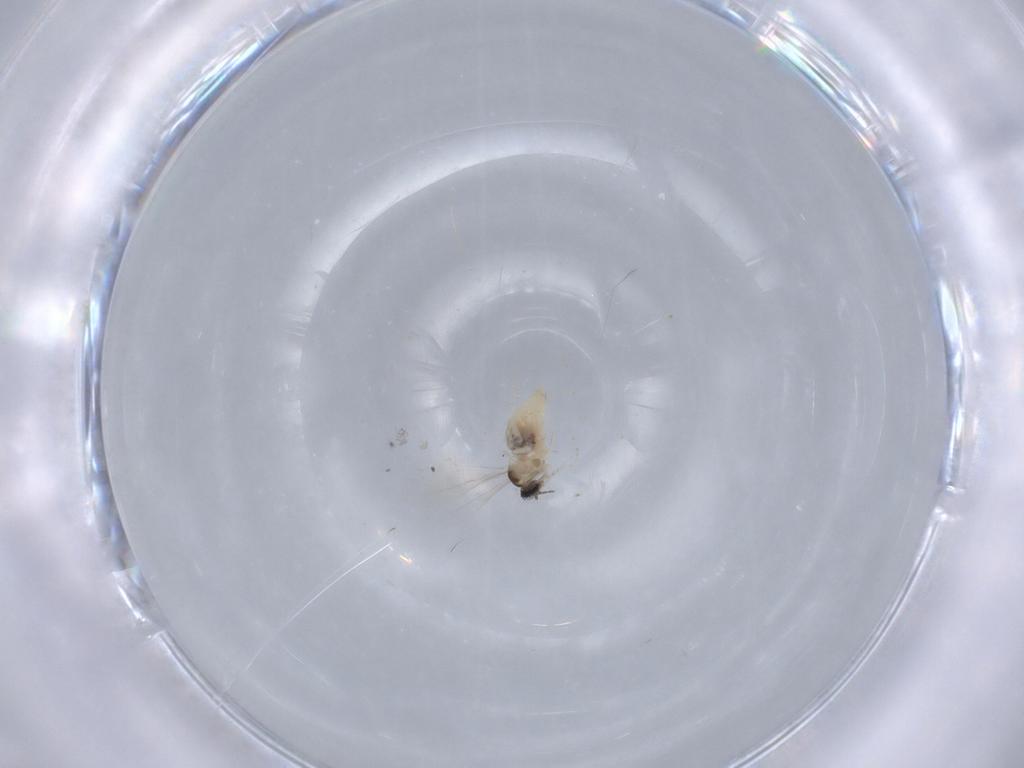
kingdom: Animalia
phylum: Arthropoda
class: Insecta
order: Diptera
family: Cecidomyiidae
